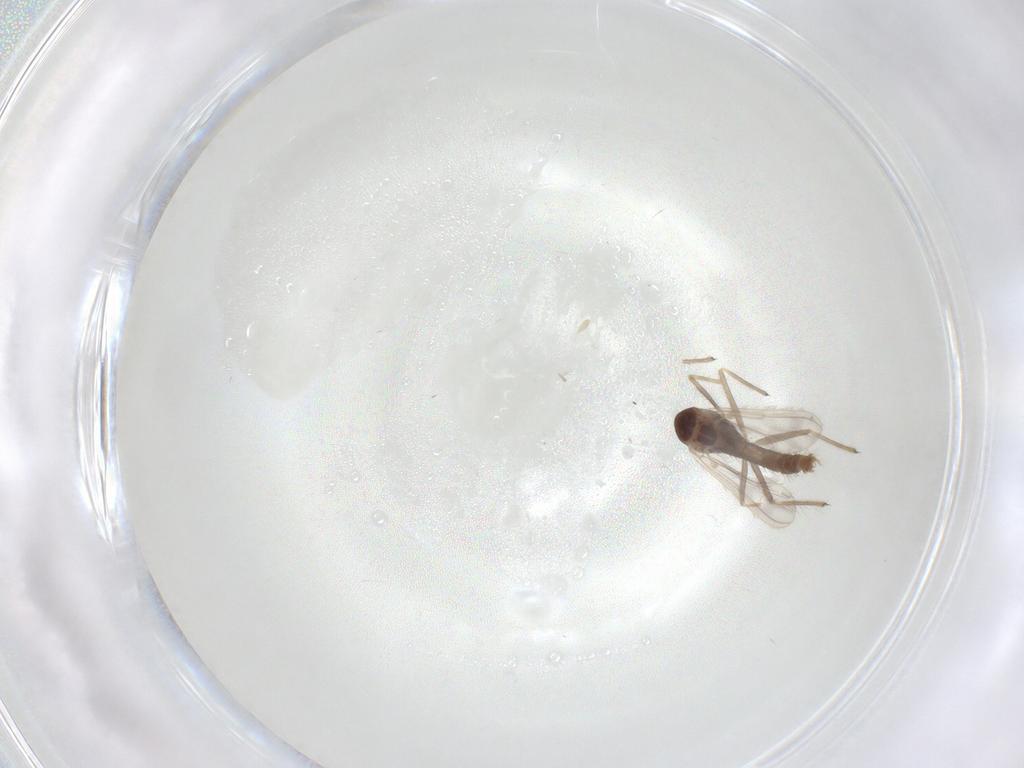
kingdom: Animalia
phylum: Arthropoda
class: Insecta
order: Diptera
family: Chironomidae
